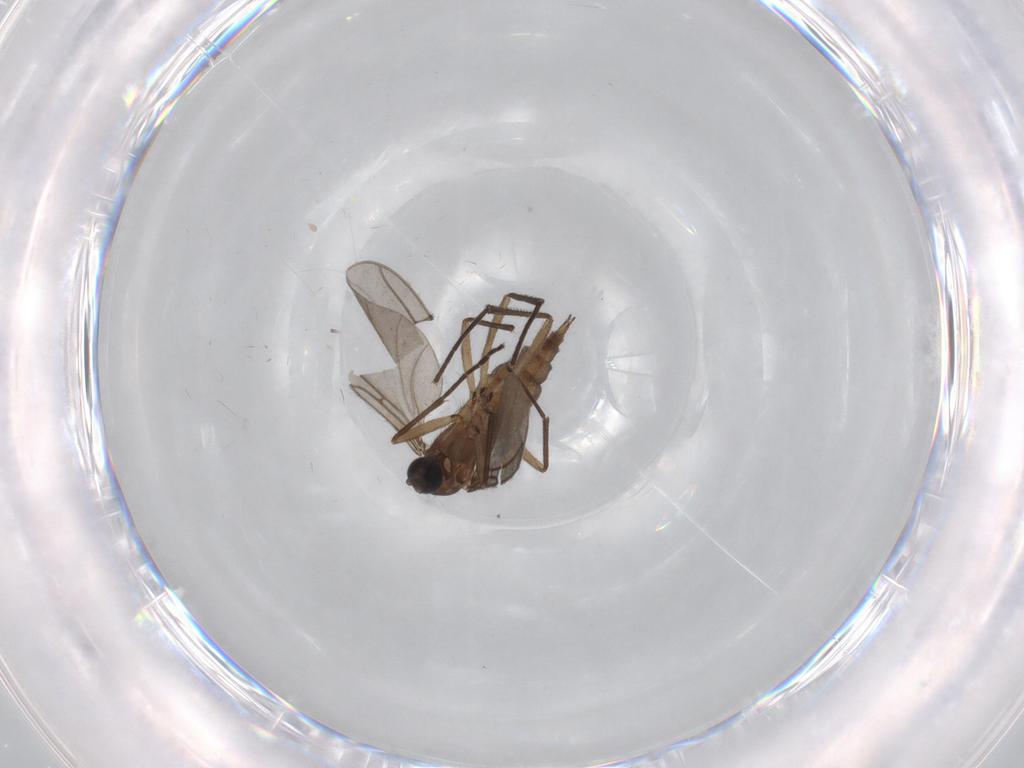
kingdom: Animalia
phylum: Arthropoda
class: Insecta
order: Diptera
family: Sciaridae
